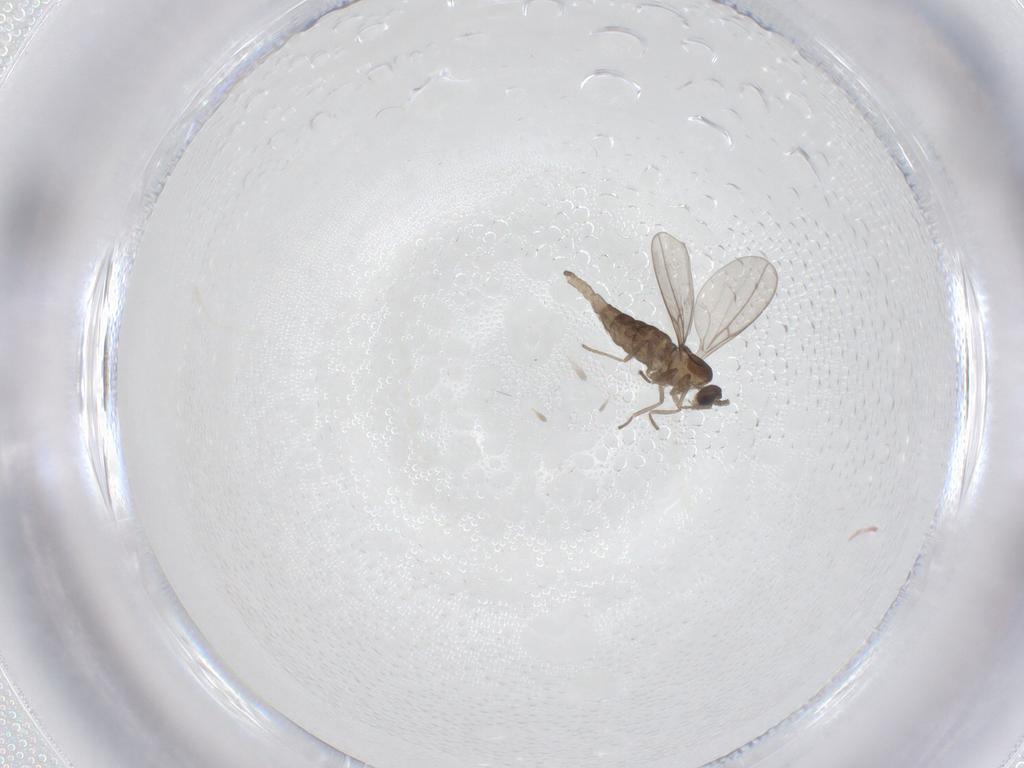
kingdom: Animalia
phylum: Arthropoda
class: Insecta
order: Diptera
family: Cecidomyiidae
